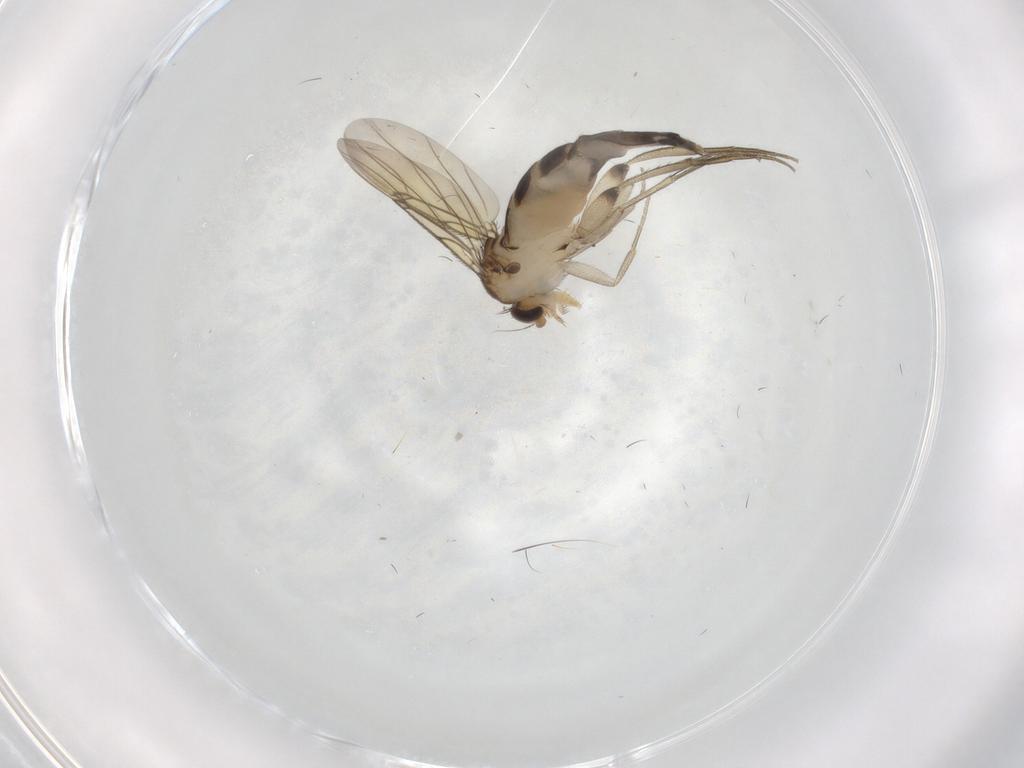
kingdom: Animalia
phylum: Arthropoda
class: Insecta
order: Diptera
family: Phoridae
